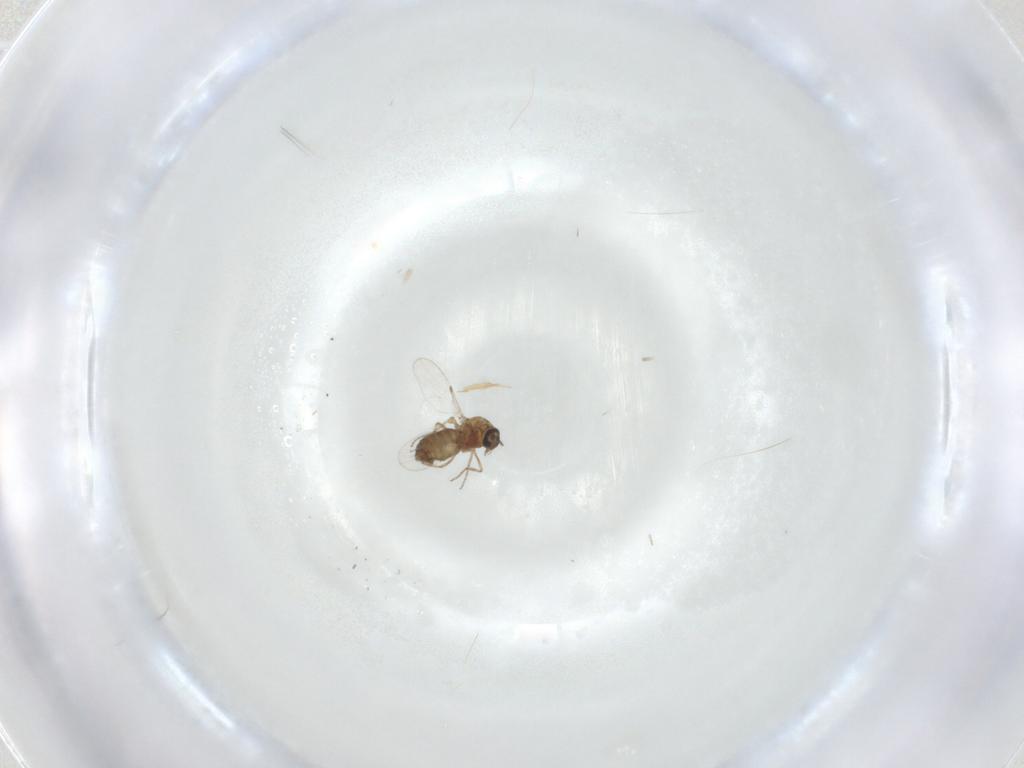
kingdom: Animalia
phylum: Arthropoda
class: Insecta
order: Diptera
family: Ceratopogonidae
